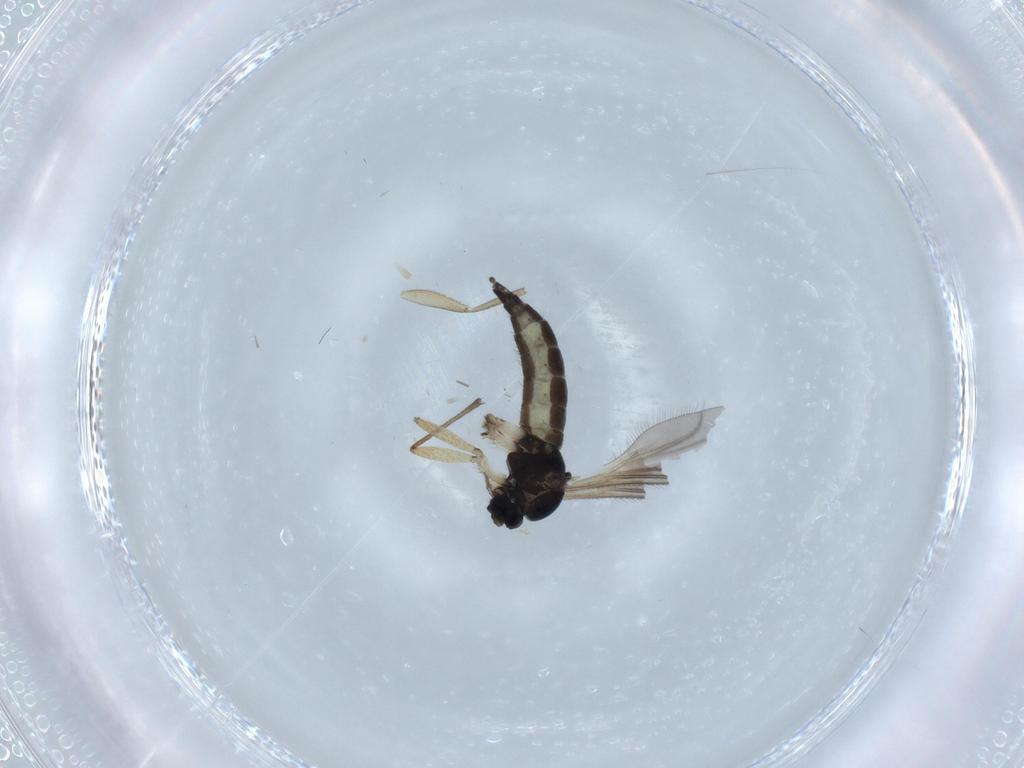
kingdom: Animalia
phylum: Arthropoda
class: Insecta
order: Diptera
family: Sciaridae
